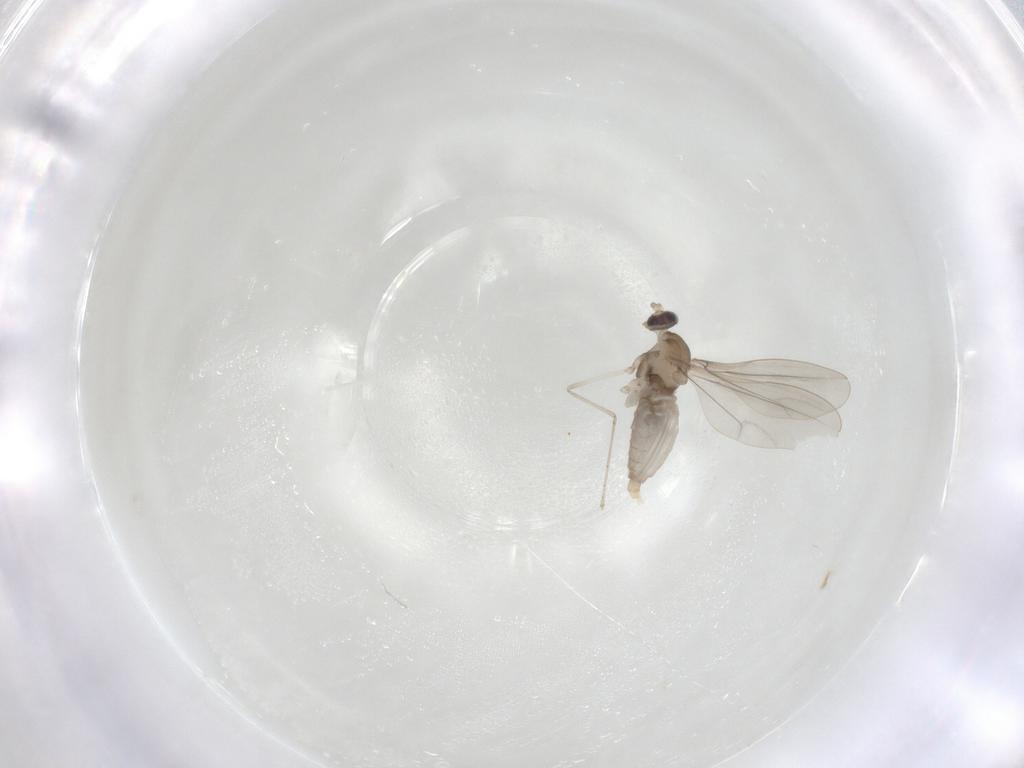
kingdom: Animalia
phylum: Arthropoda
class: Insecta
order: Diptera
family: Cecidomyiidae
